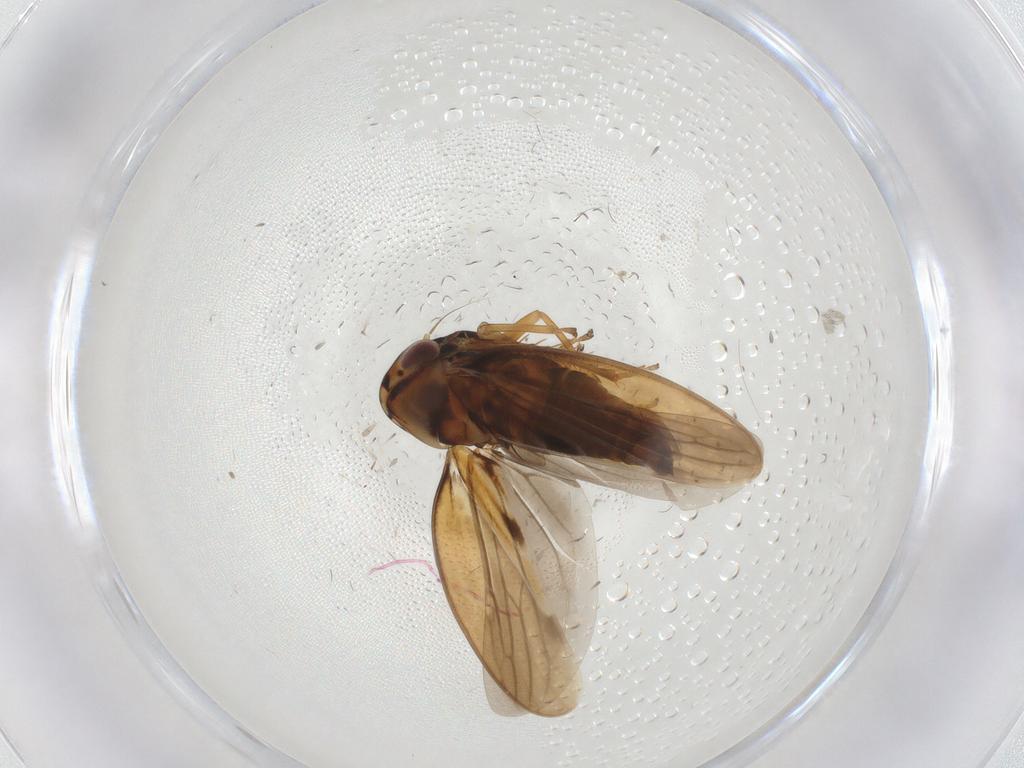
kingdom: Animalia
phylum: Arthropoda
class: Insecta
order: Hemiptera
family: Cicadellidae
